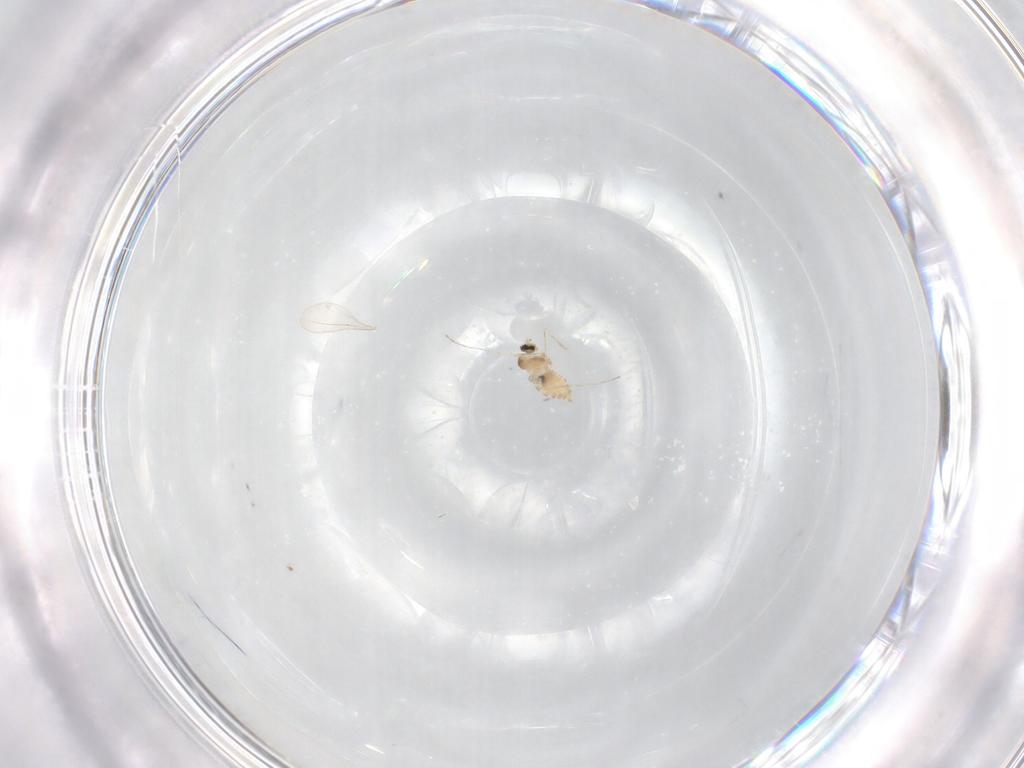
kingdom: Animalia
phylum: Arthropoda
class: Insecta
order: Diptera
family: Cecidomyiidae
